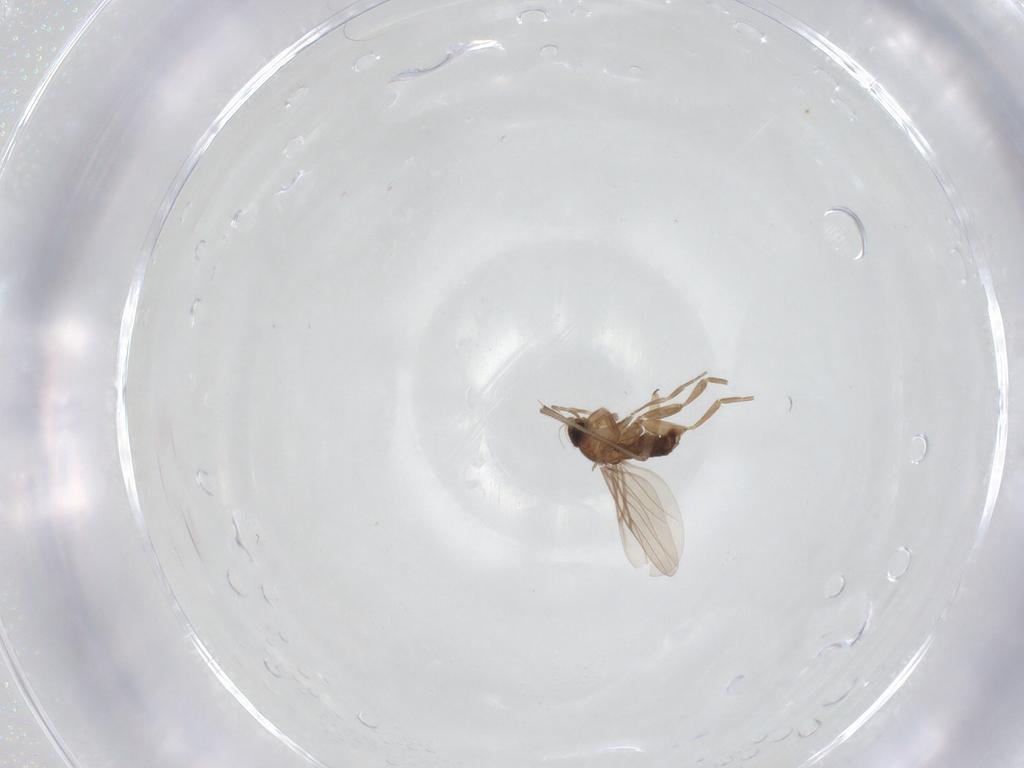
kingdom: Animalia
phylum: Arthropoda
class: Insecta
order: Diptera
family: Phoridae
